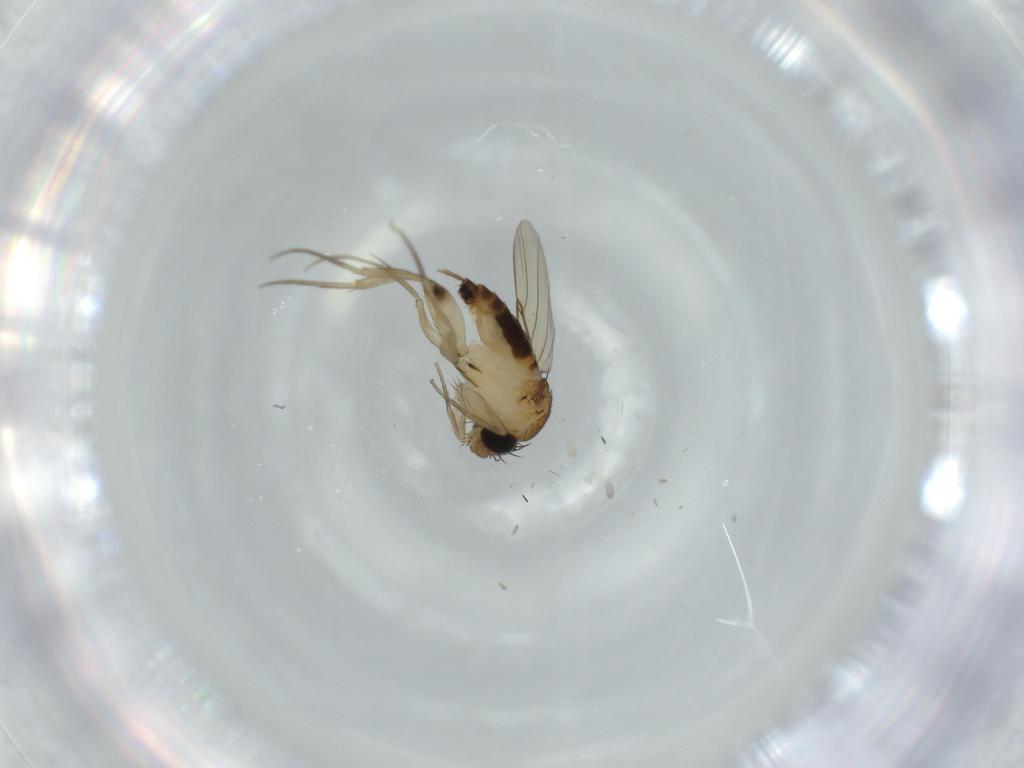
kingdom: Animalia
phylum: Arthropoda
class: Insecta
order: Diptera
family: Phoridae
